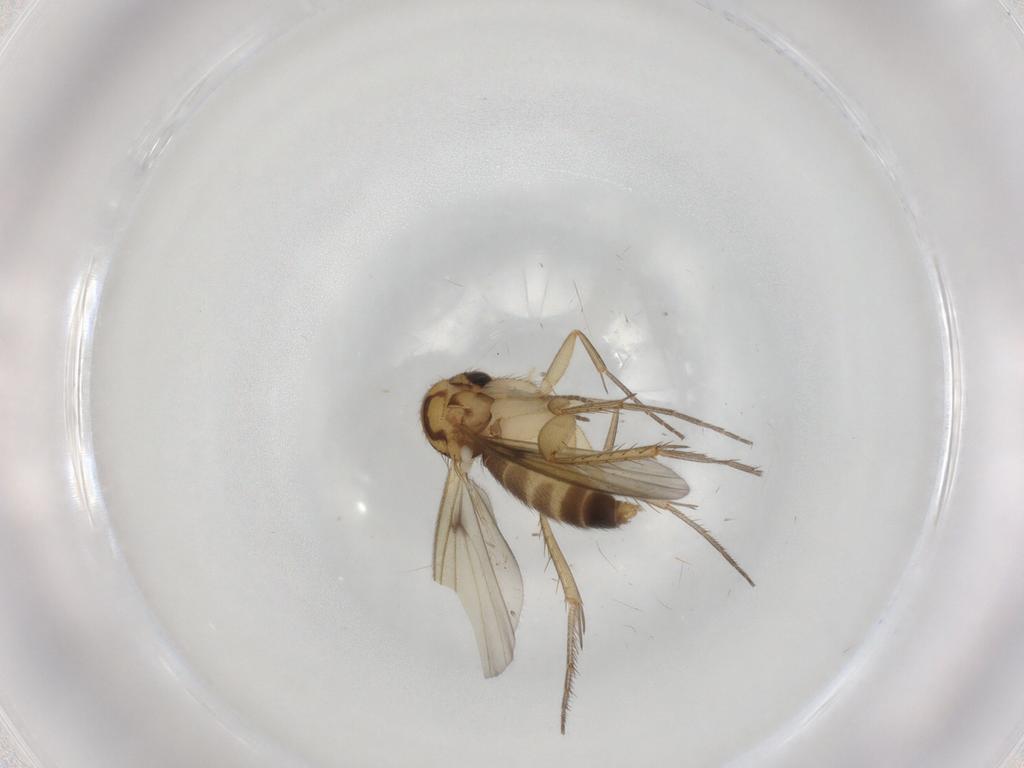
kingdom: Animalia
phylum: Arthropoda
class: Insecta
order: Diptera
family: Mycetophilidae
